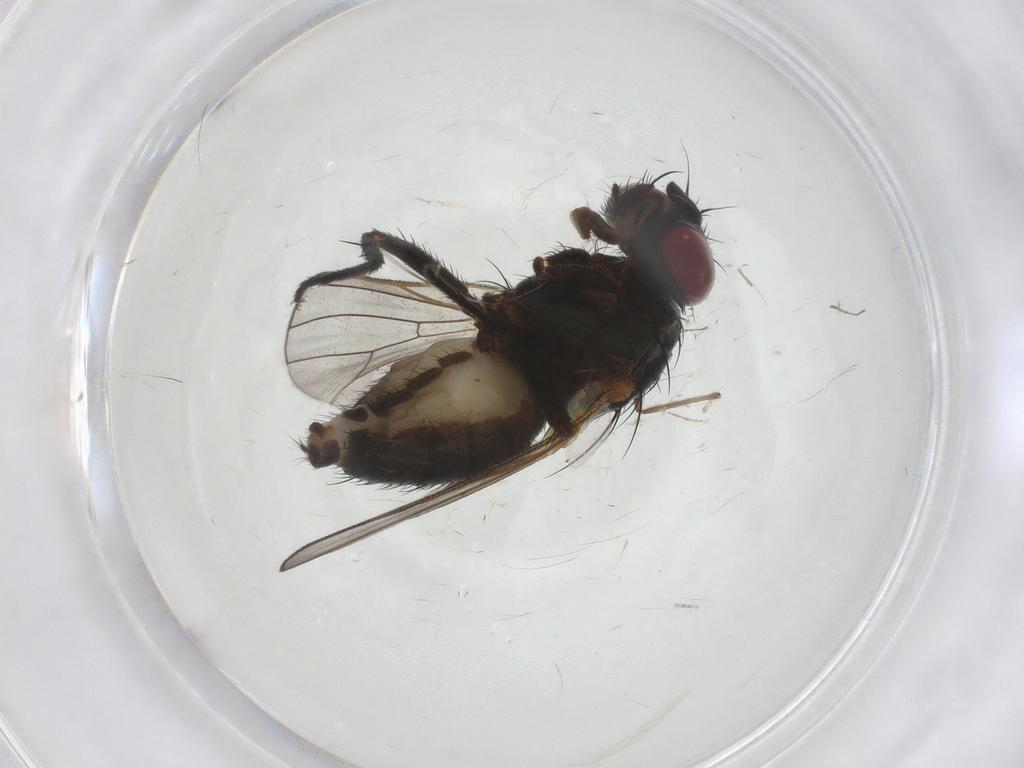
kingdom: Animalia
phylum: Arthropoda
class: Insecta
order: Diptera
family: Fannia
